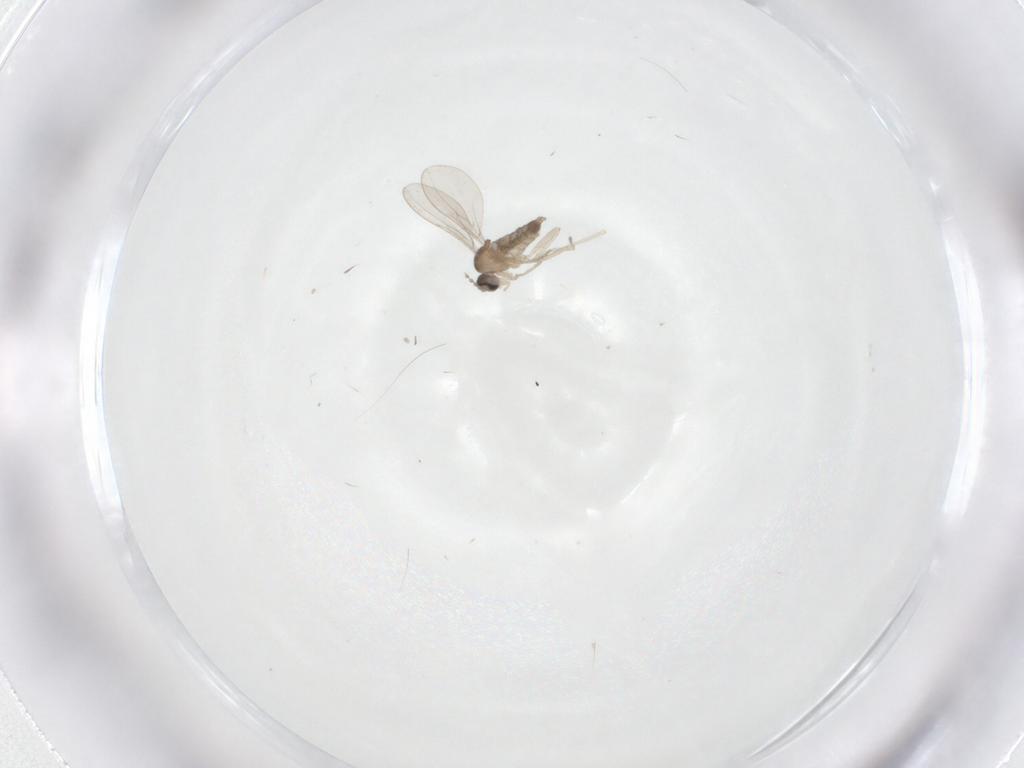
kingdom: Animalia
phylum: Arthropoda
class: Insecta
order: Diptera
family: Cecidomyiidae
